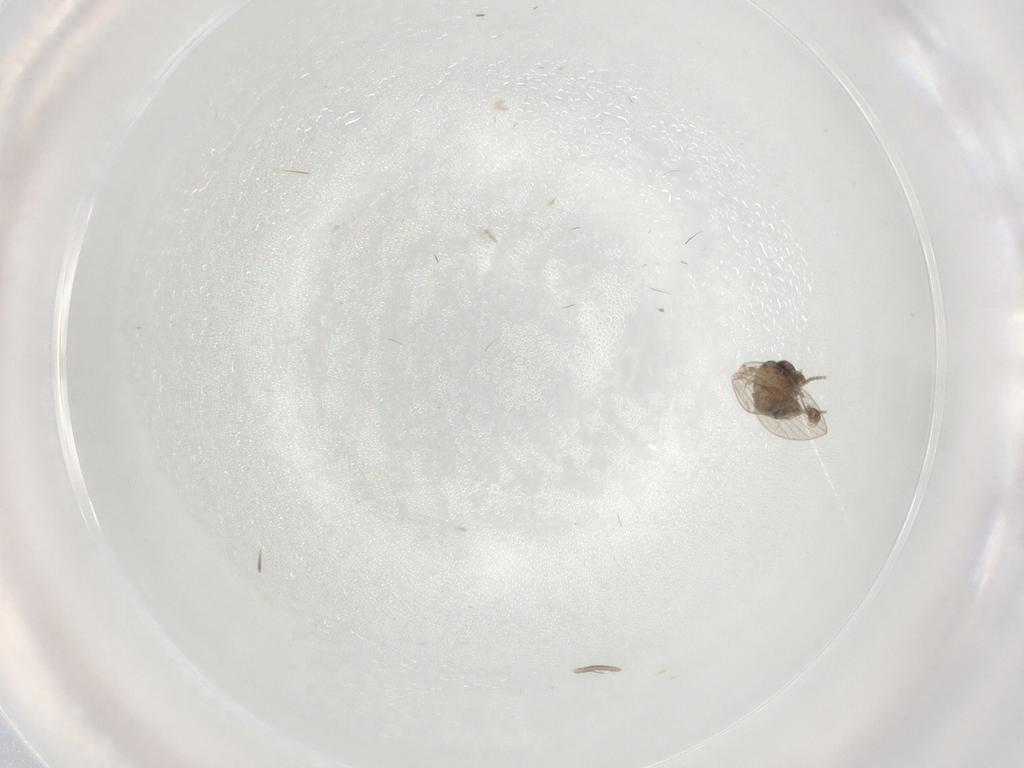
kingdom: Animalia
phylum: Arthropoda
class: Insecta
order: Diptera
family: Psychodidae
